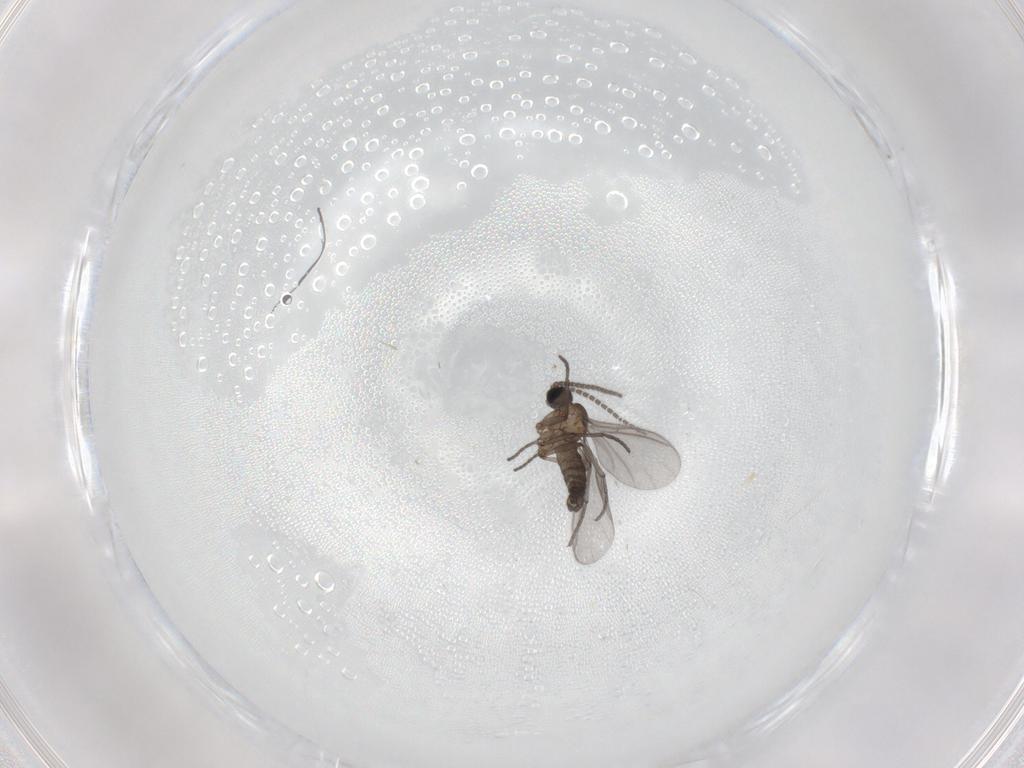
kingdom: Animalia
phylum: Arthropoda
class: Insecta
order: Diptera
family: Sciaridae
